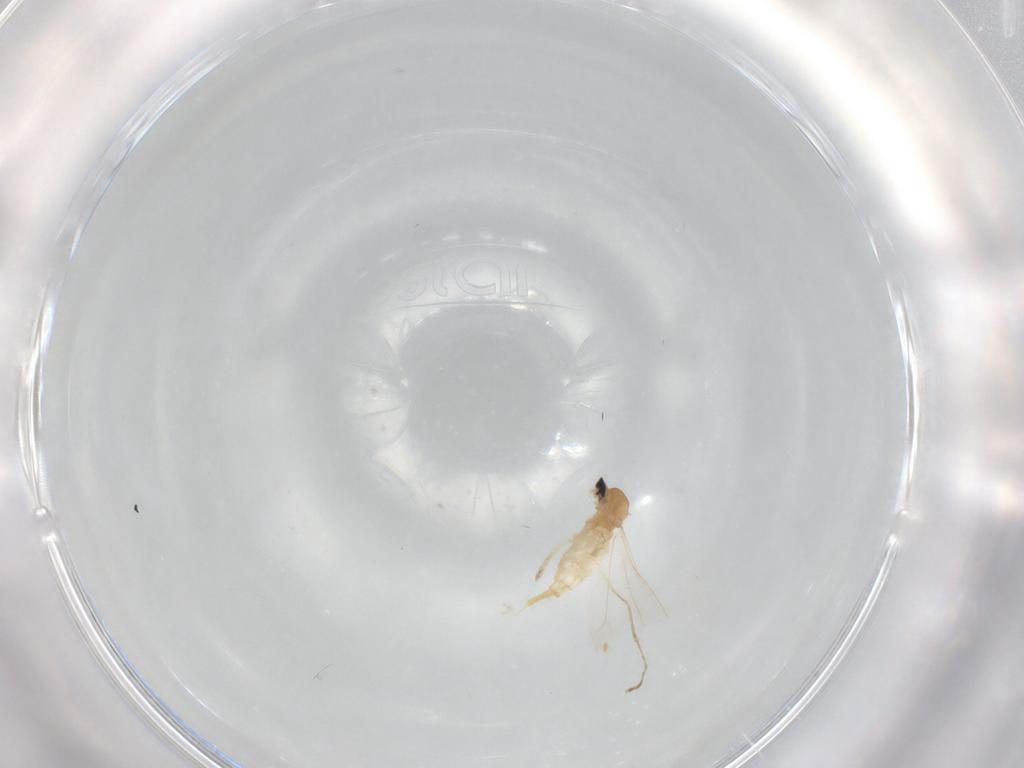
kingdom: Animalia
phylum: Arthropoda
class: Insecta
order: Diptera
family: Cecidomyiidae
